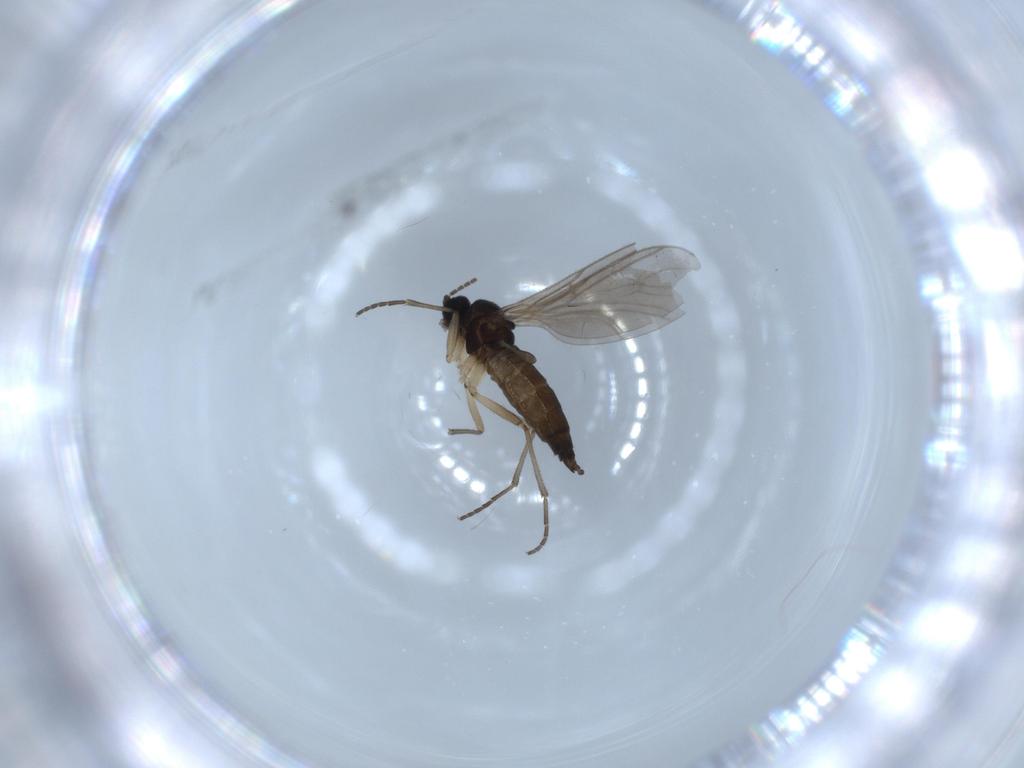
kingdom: Animalia
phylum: Arthropoda
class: Insecta
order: Diptera
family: Sciaridae
